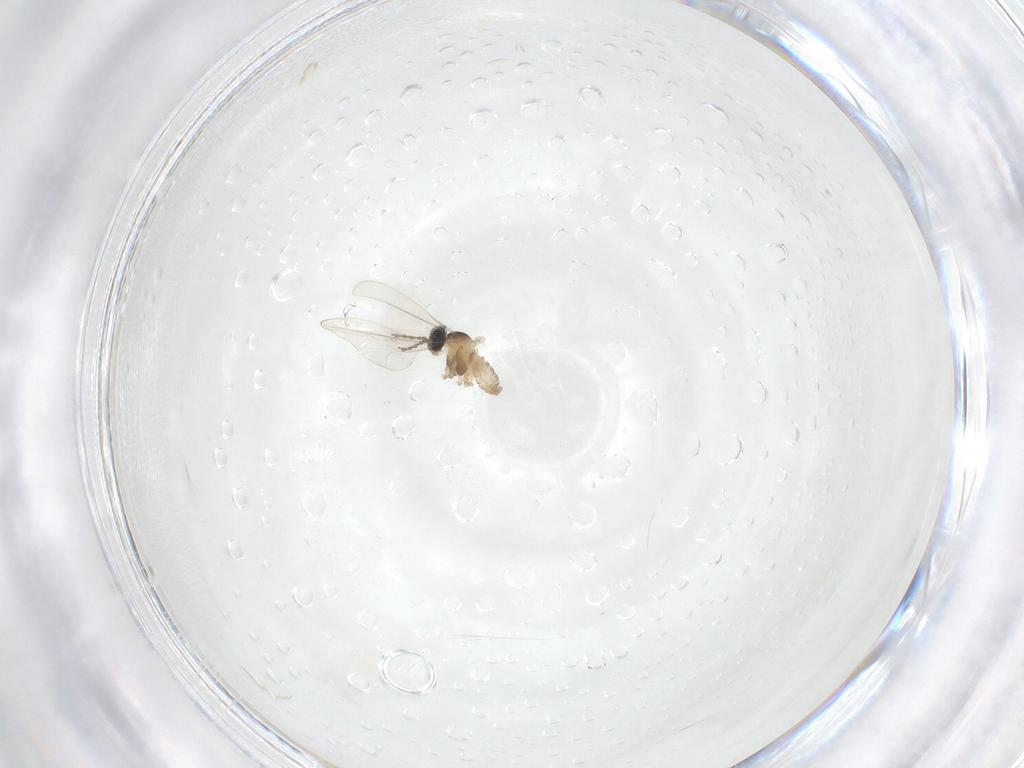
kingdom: Animalia
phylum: Arthropoda
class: Insecta
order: Diptera
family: Cecidomyiidae
